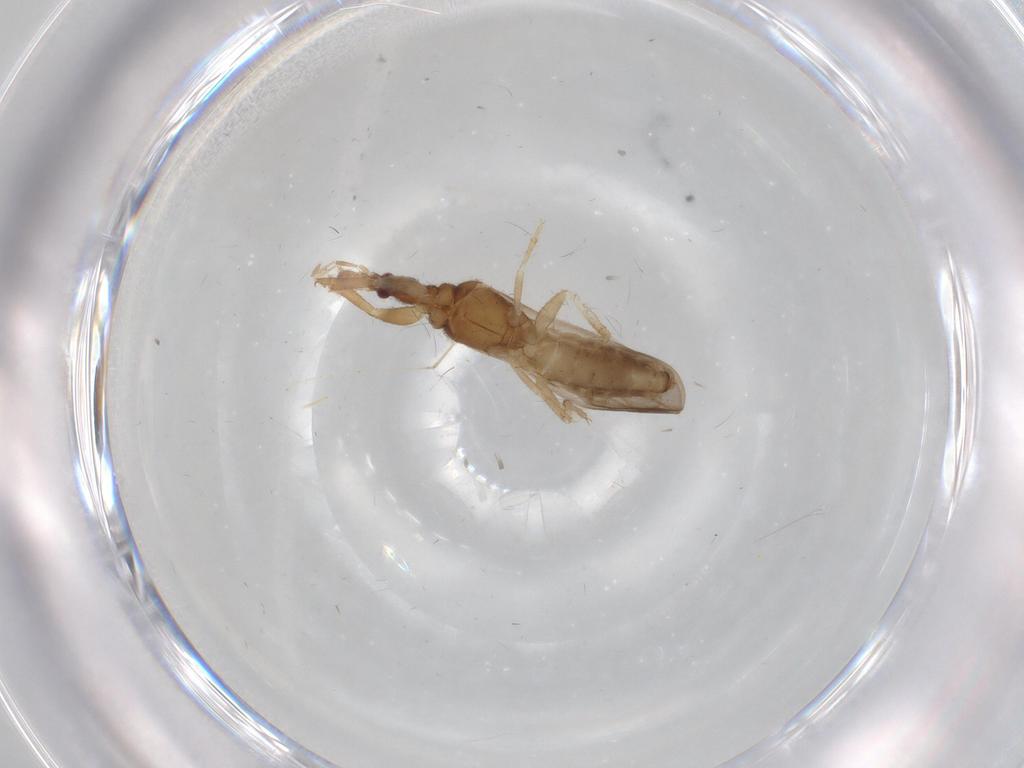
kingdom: Animalia
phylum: Arthropoda
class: Insecta
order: Hemiptera
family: Enicocephalidae
